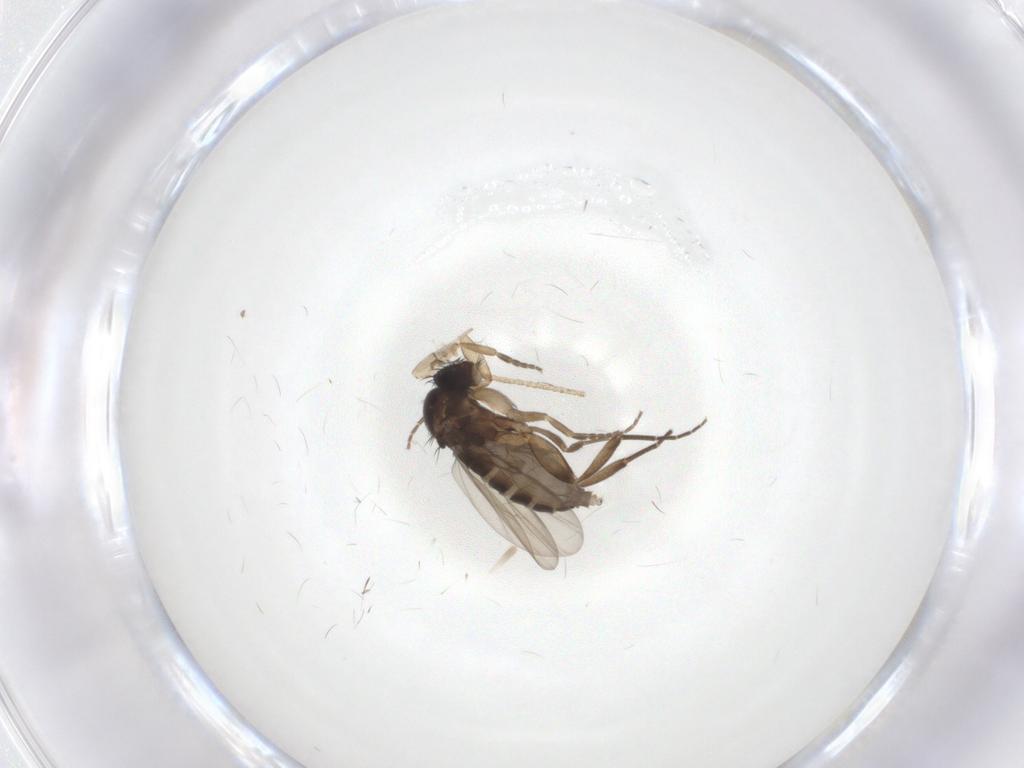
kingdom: Animalia
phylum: Arthropoda
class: Insecta
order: Diptera
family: Phoridae
